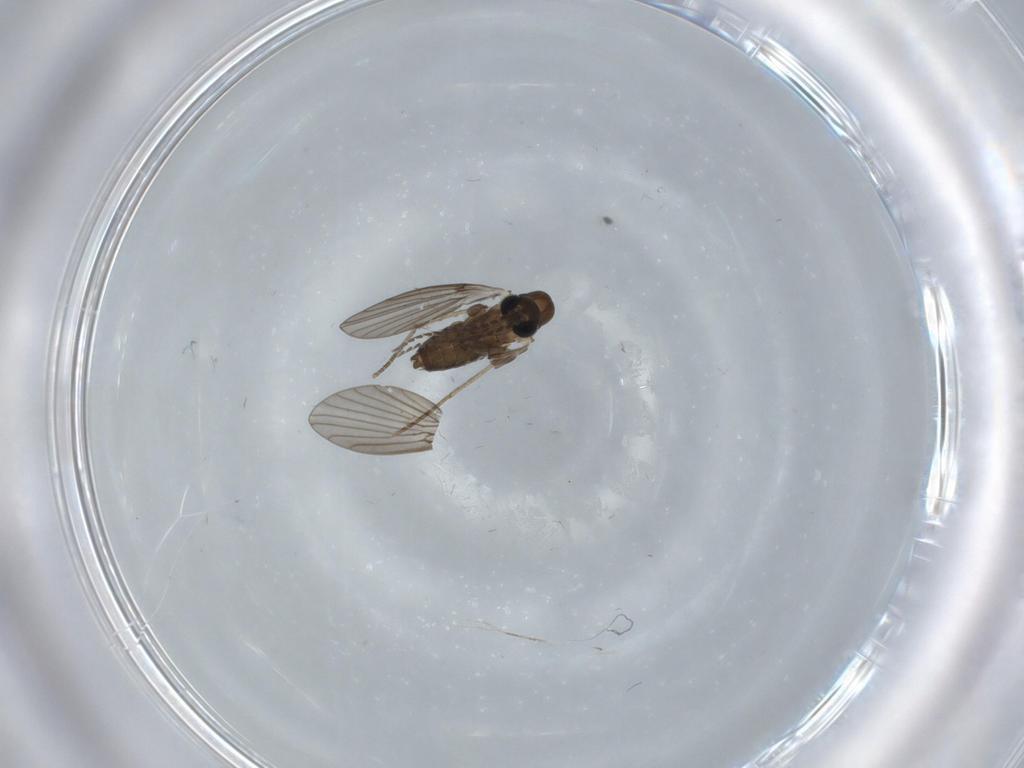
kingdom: Animalia
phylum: Arthropoda
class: Insecta
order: Diptera
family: Psychodidae
